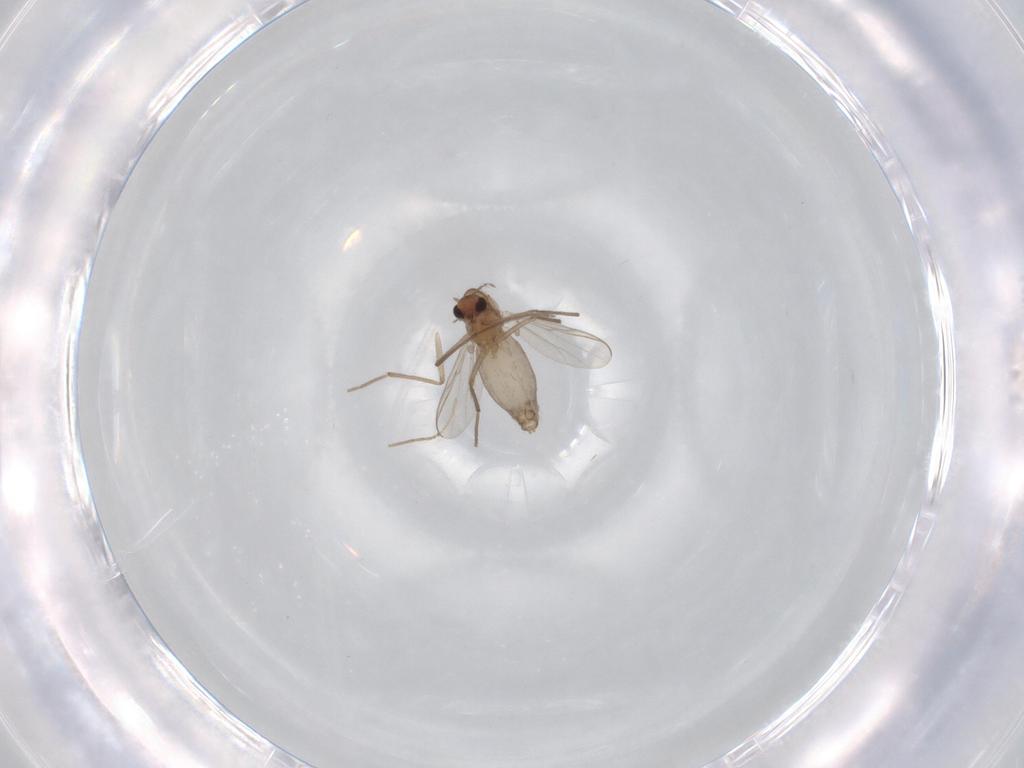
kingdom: Animalia
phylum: Arthropoda
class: Insecta
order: Diptera
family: Chironomidae
